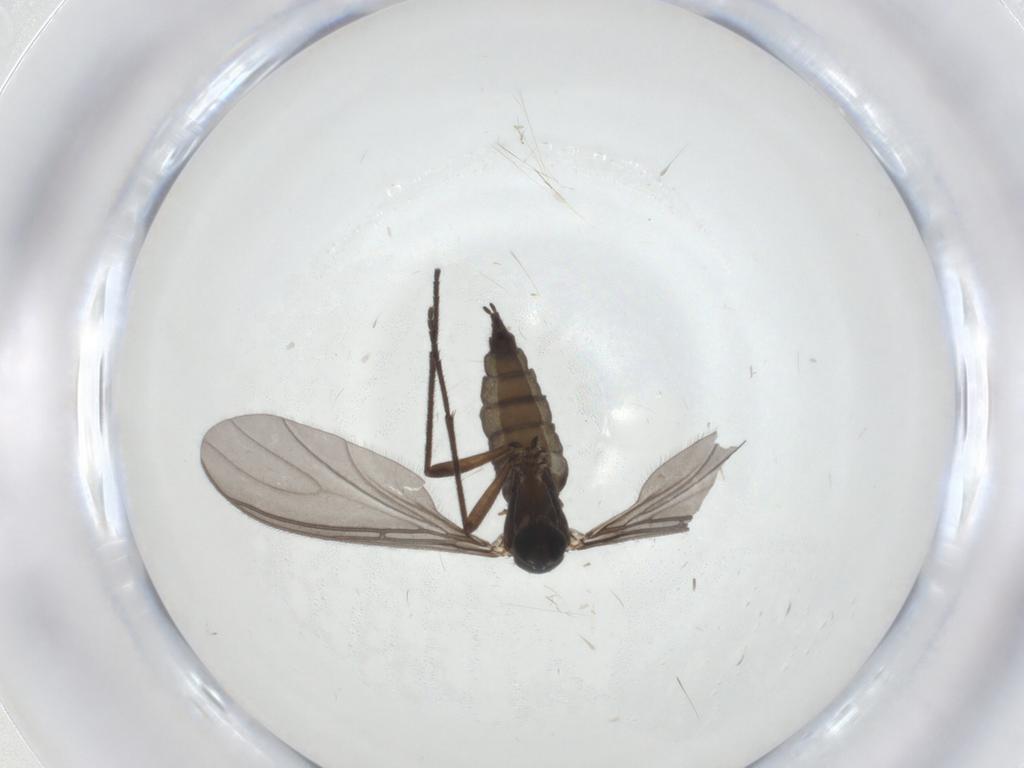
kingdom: Animalia
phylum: Arthropoda
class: Insecta
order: Diptera
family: Sciaridae
